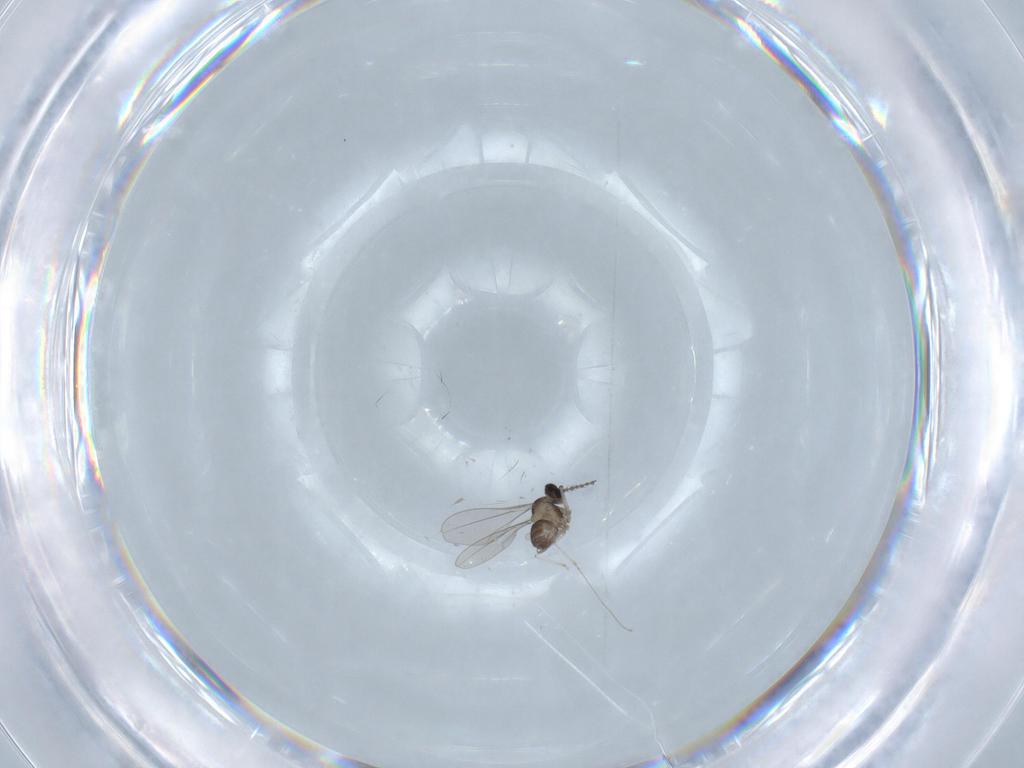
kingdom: Animalia
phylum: Arthropoda
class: Insecta
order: Diptera
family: Cecidomyiidae
